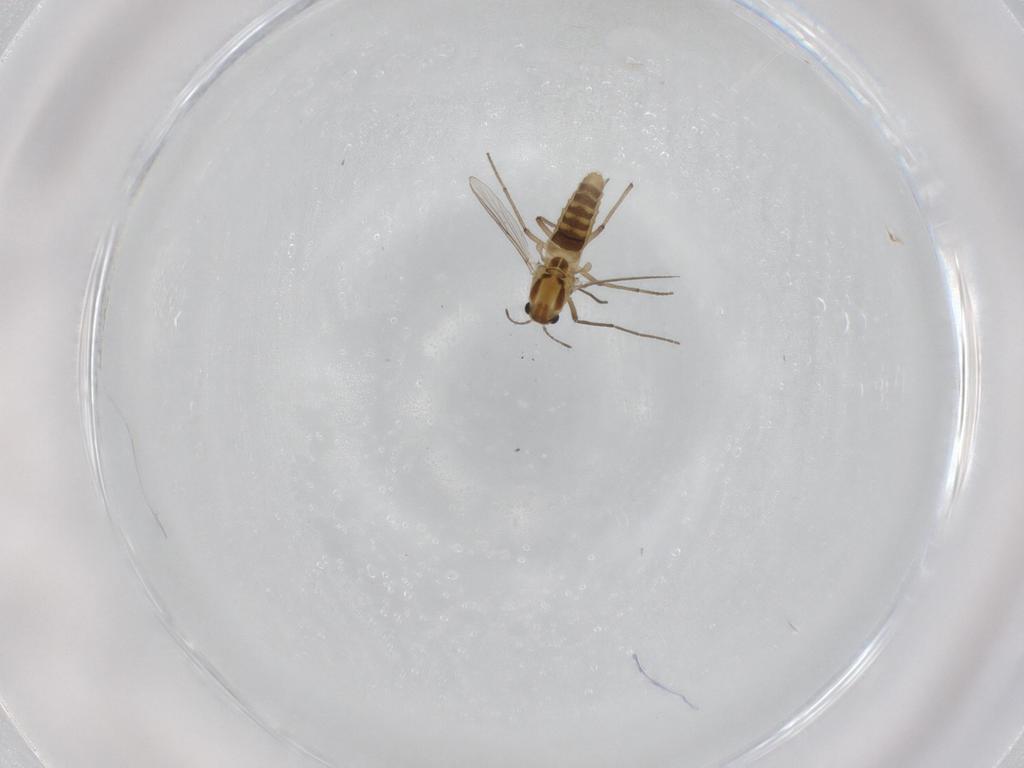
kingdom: Animalia
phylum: Arthropoda
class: Insecta
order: Diptera
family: Chironomidae
